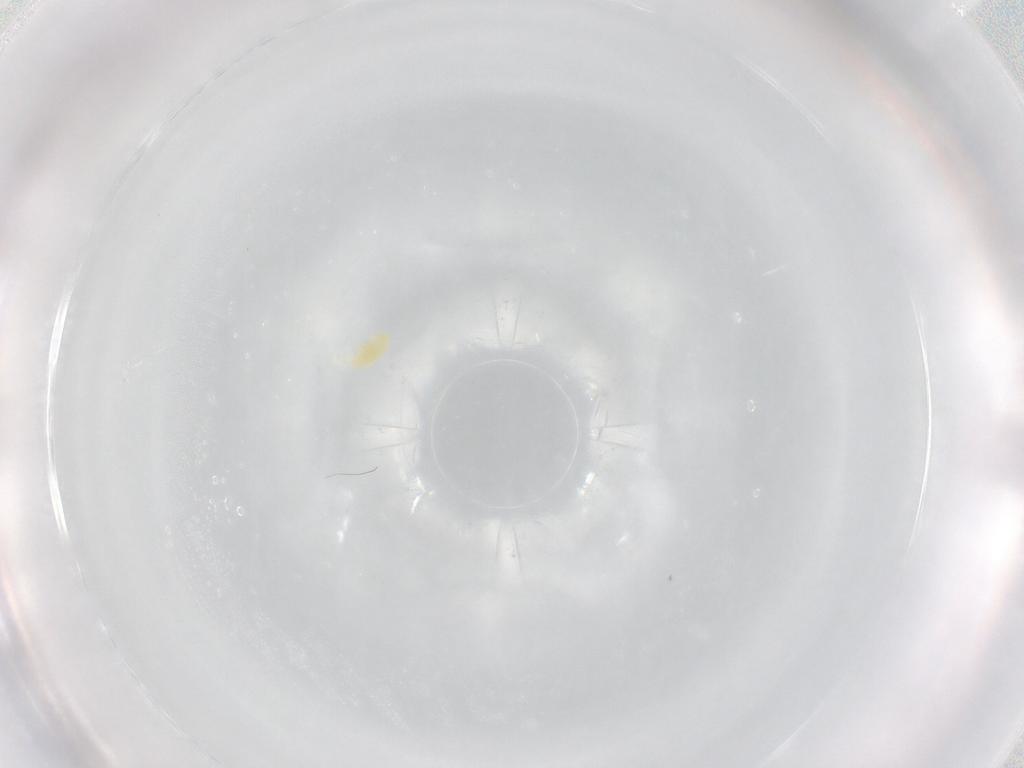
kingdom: Animalia
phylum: Arthropoda
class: Arachnida
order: Trombidiformes
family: Eupodidae
